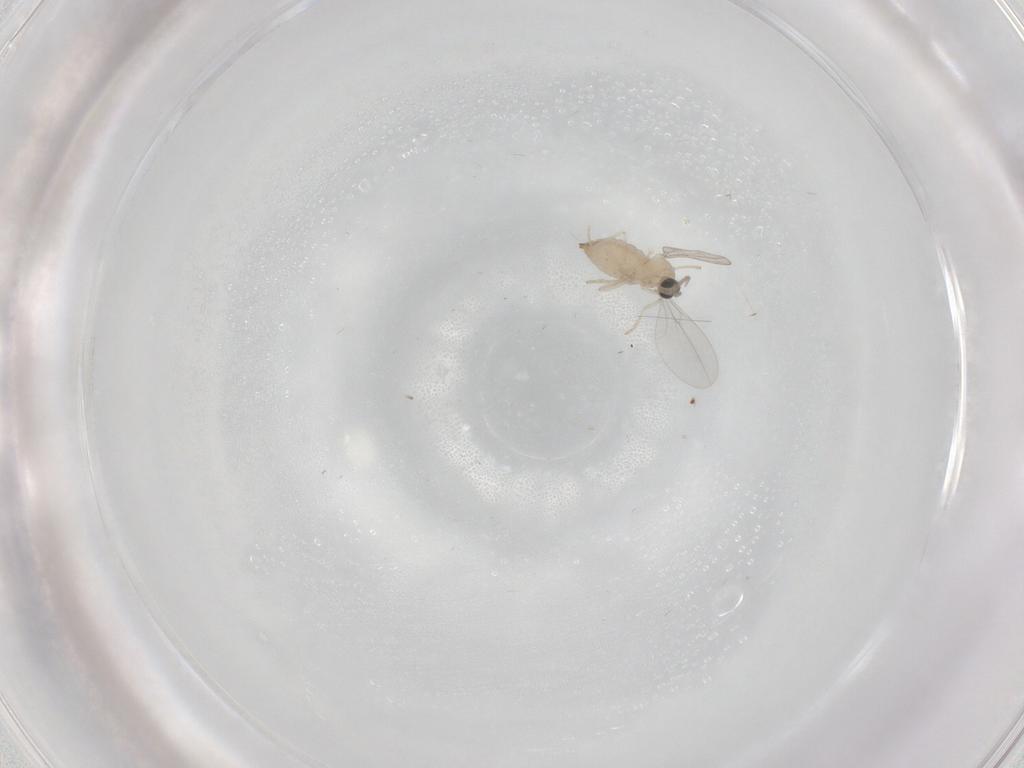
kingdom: Animalia
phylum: Arthropoda
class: Insecta
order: Diptera
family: Cecidomyiidae
